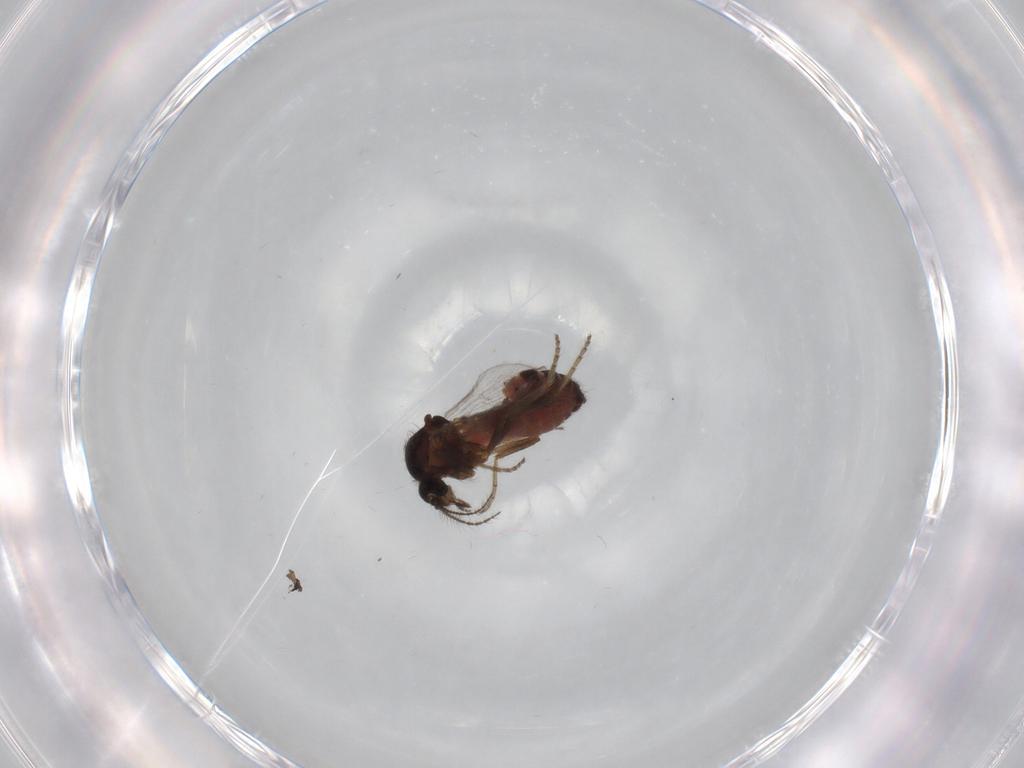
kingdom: Animalia
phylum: Arthropoda
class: Insecta
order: Diptera
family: Ceratopogonidae
